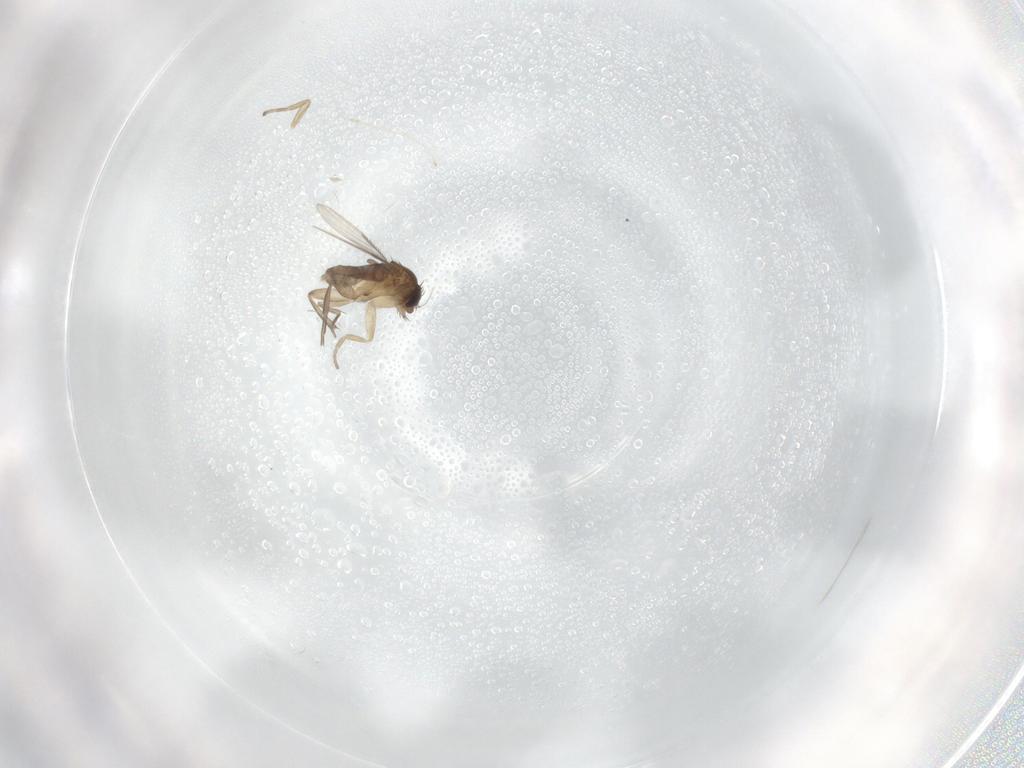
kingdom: Animalia
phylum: Arthropoda
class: Insecta
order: Diptera
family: Phoridae
